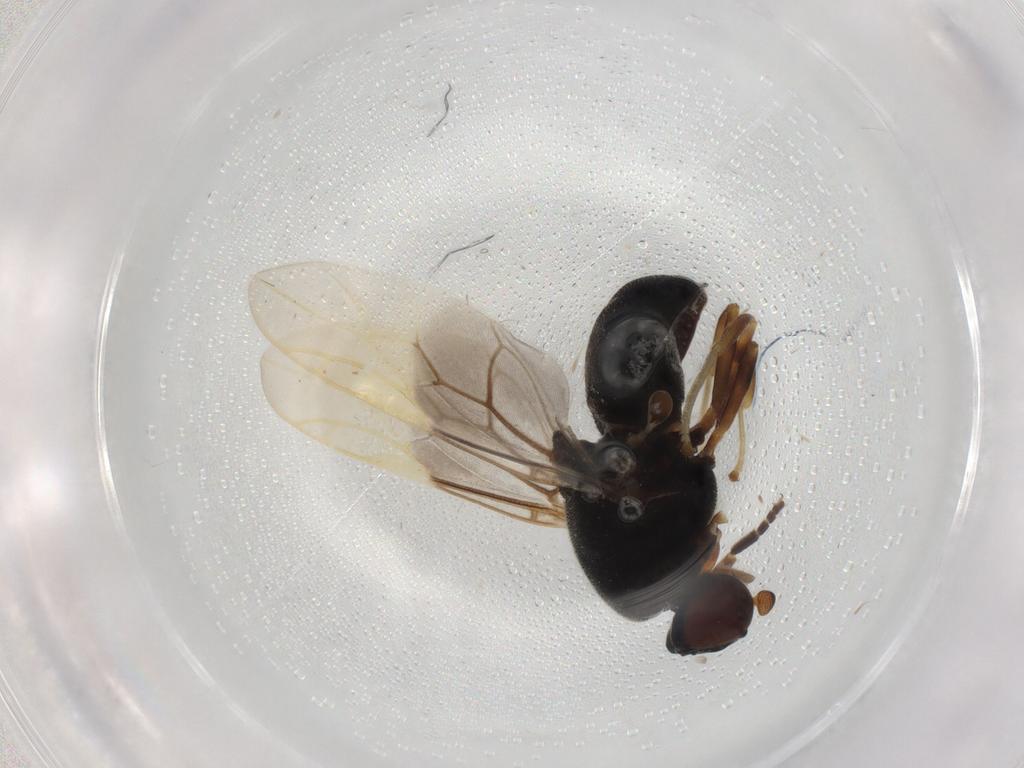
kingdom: Animalia
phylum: Arthropoda
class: Insecta
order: Diptera
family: Stratiomyidae
